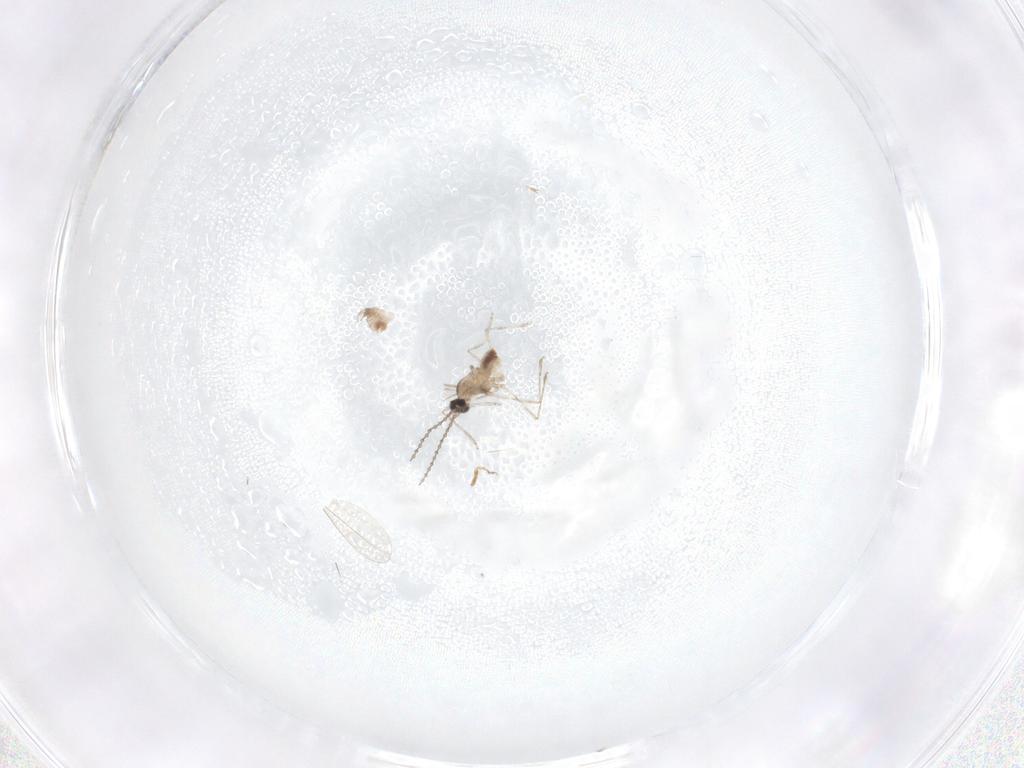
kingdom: Animalia
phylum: Arthropoda
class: Insecta
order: Diptera
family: Cecidomyiidae
